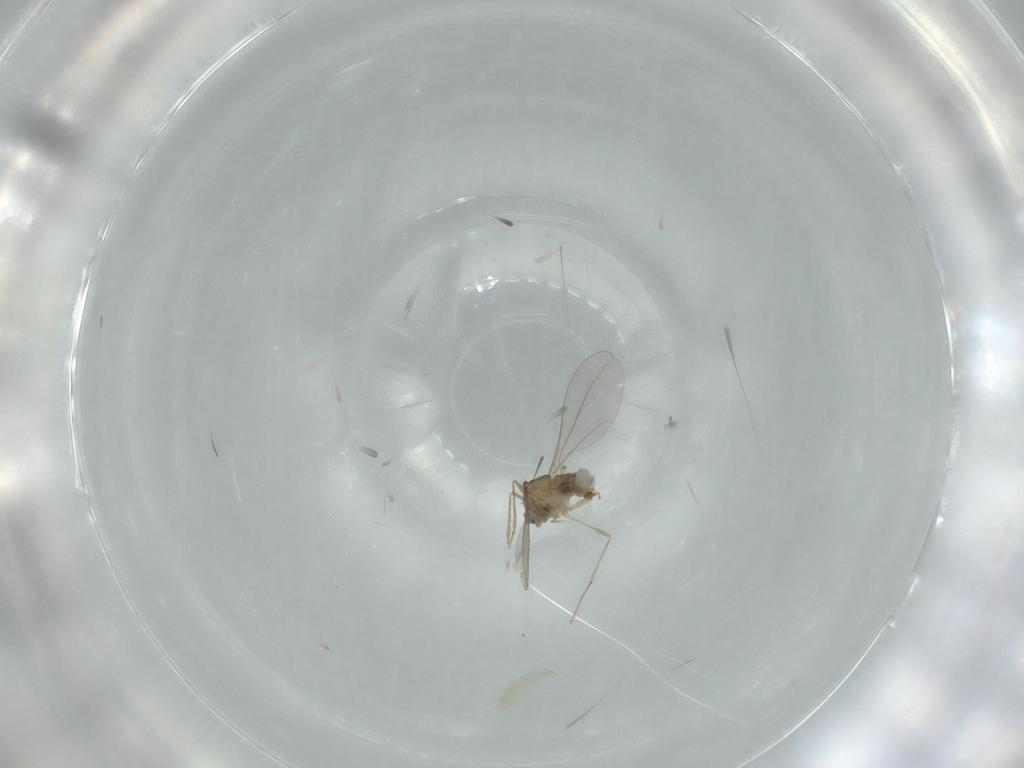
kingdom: Animalia
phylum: Arthropoda
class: Insecta
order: Diptera
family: Cecidomyiidae
